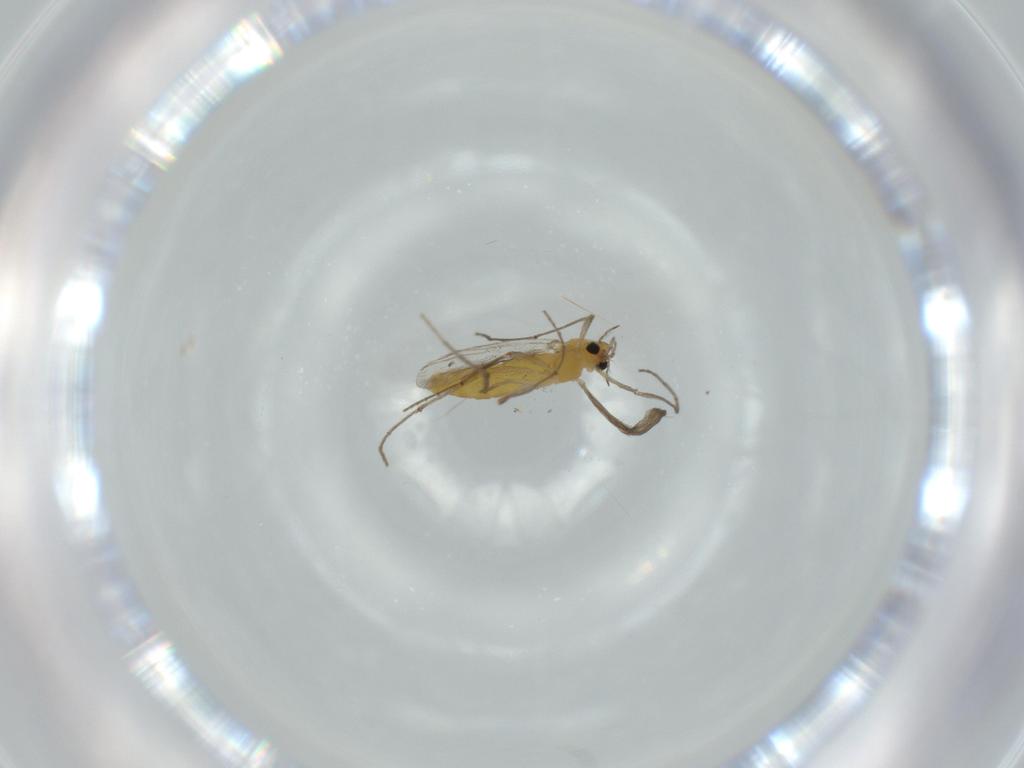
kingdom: Animalia
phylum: Arthropoda
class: Insecta
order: Diptera
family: Chironomidae
